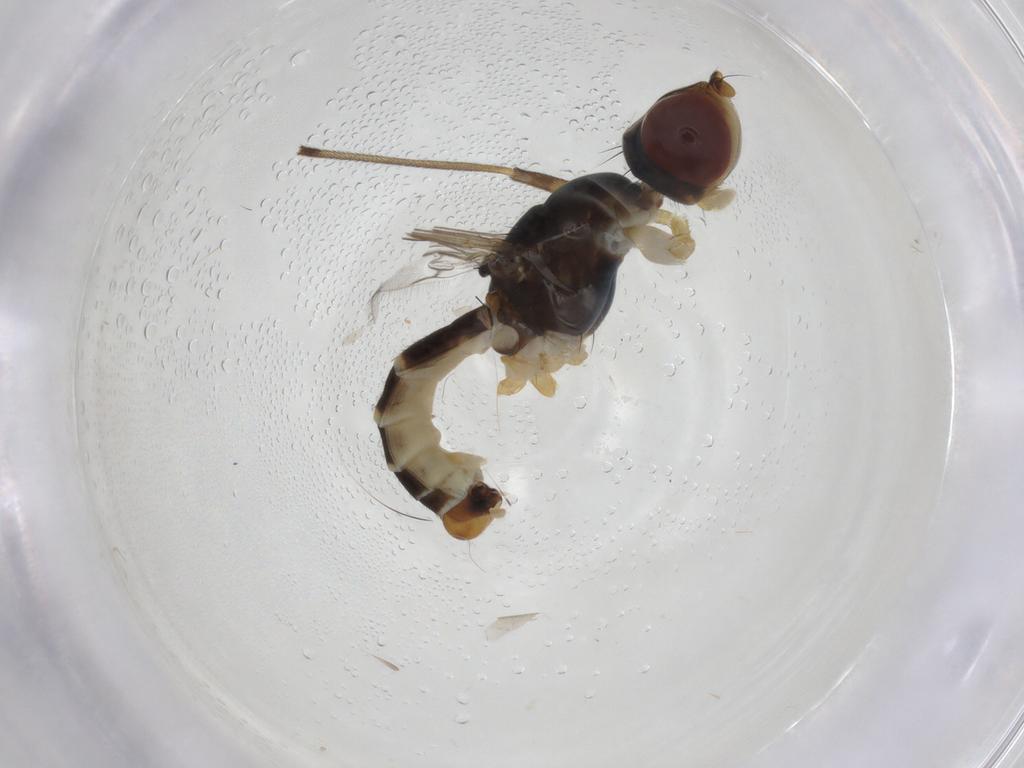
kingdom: Animalia
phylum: Arthropoda
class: Insecta
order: Diptera
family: Micropezidae
